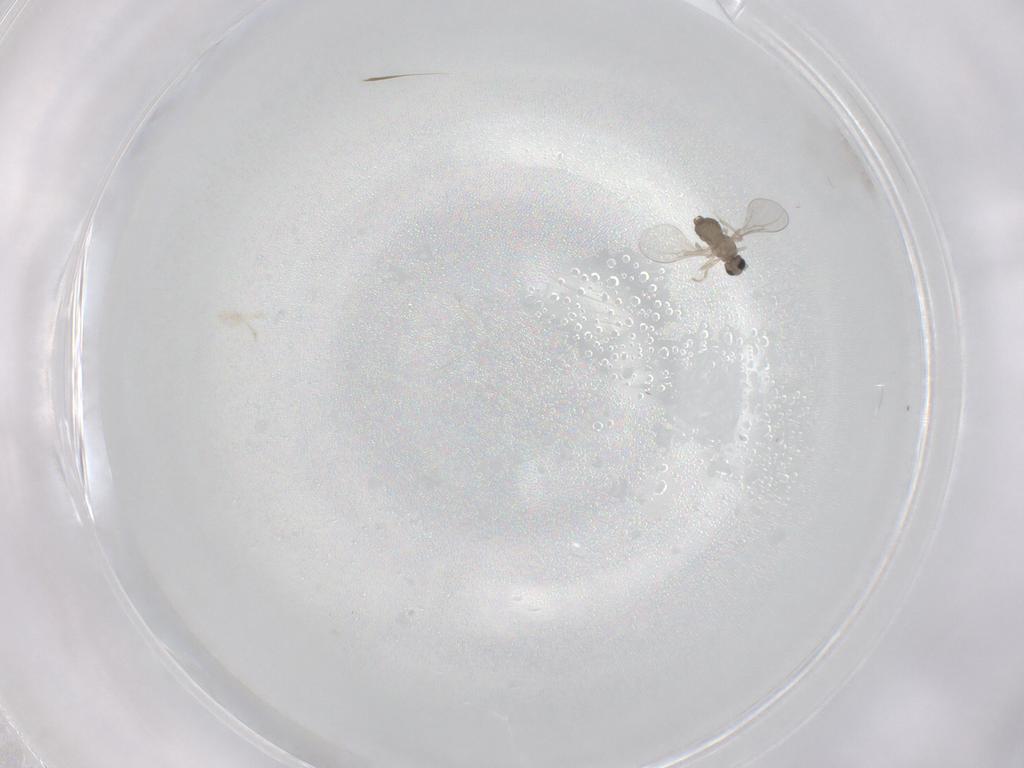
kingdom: Animalia
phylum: Arthropoda
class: Insecta
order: Diptera
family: Cecidomyiidae
